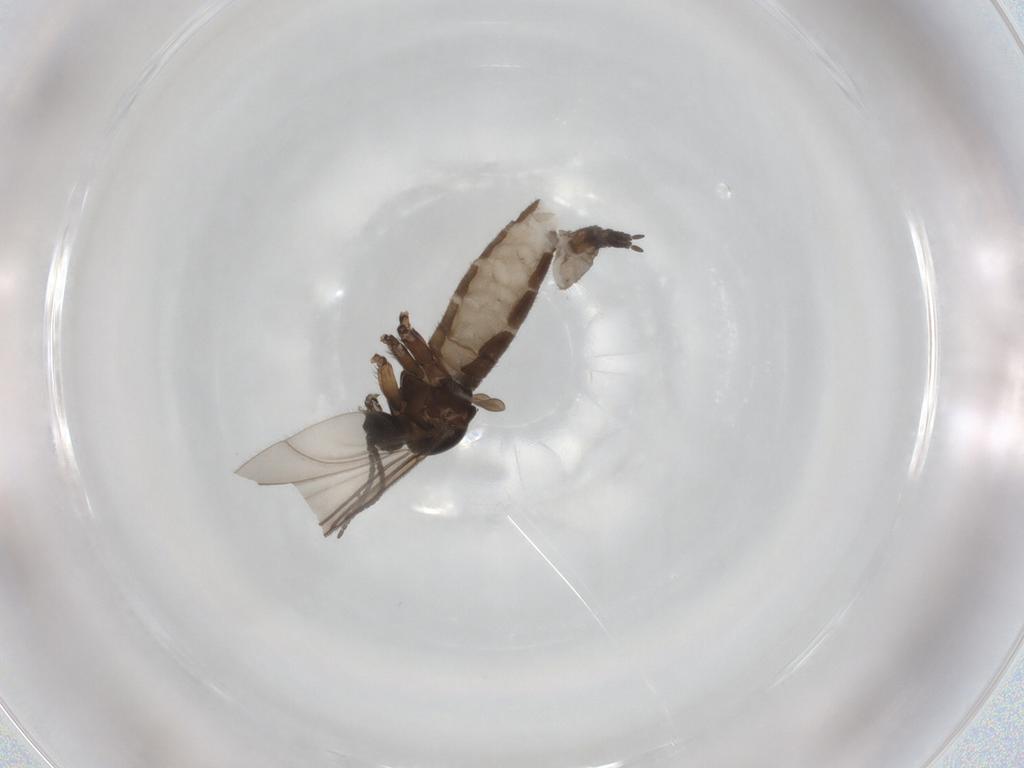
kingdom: Animalia
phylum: Arthropoda
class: Insecta
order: Diptera
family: Sciaridae
